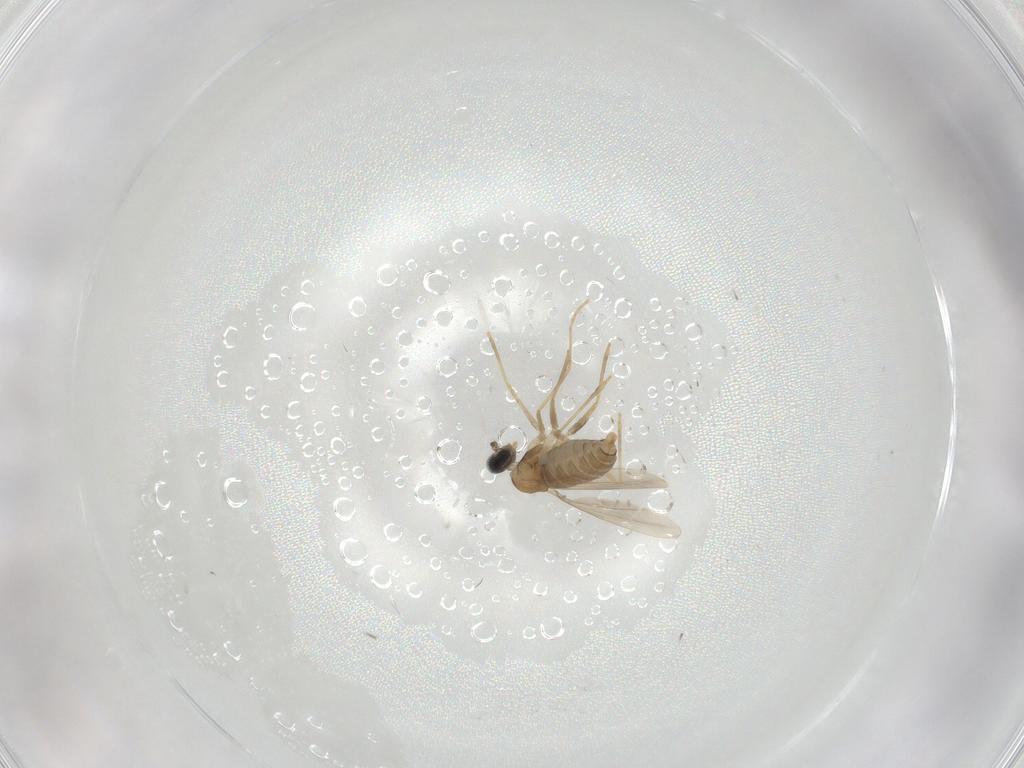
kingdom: Animalia
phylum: Arthropoda
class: Insecta
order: Diptera
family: Cecidomyiidae
